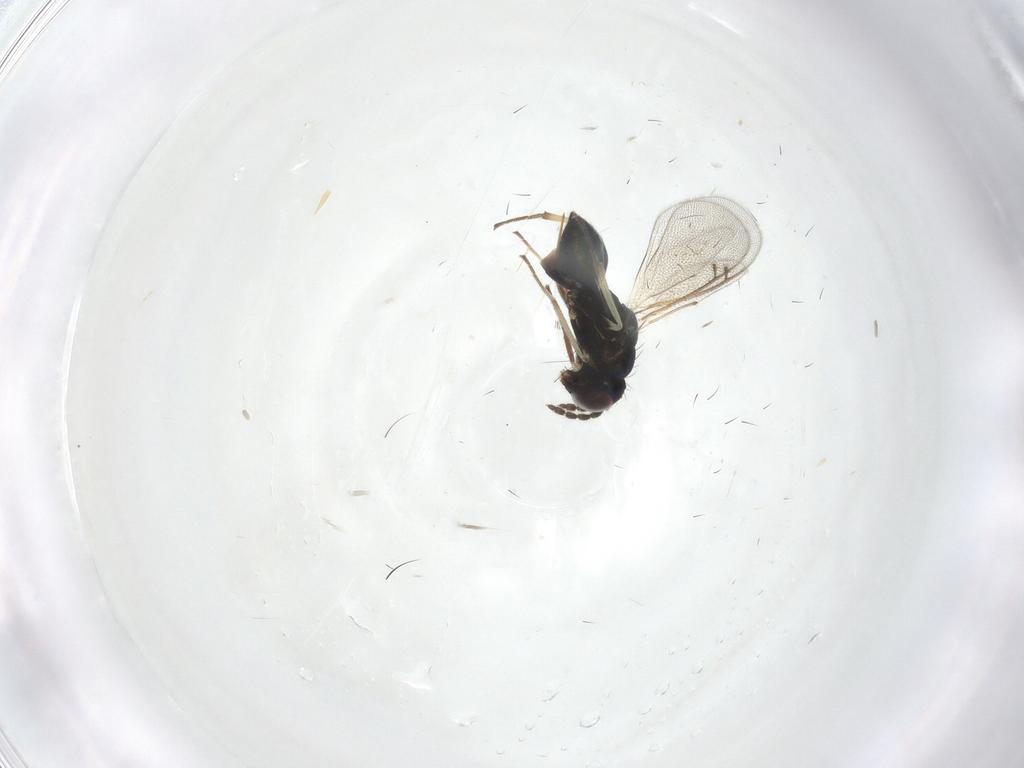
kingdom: Animalia
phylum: Arthropoda
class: Insecta
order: Hymenoptera
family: Eulophidae
